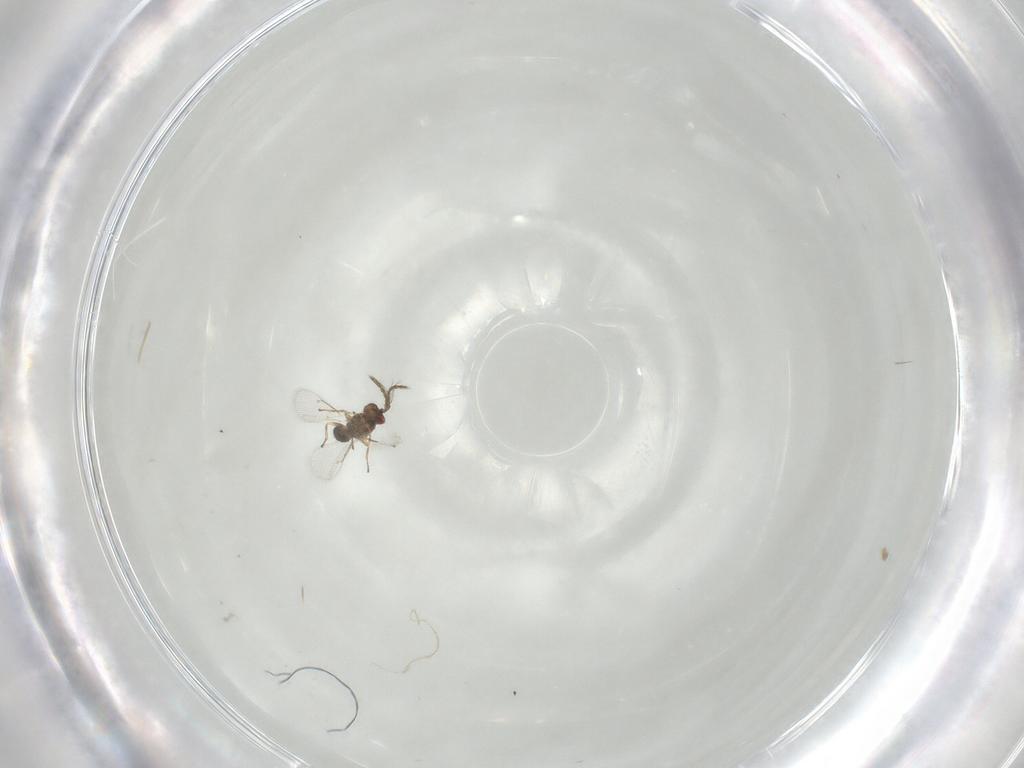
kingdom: Animalia
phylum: Arthropoda
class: Insecta
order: Hymenoptera
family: Eulophidae
